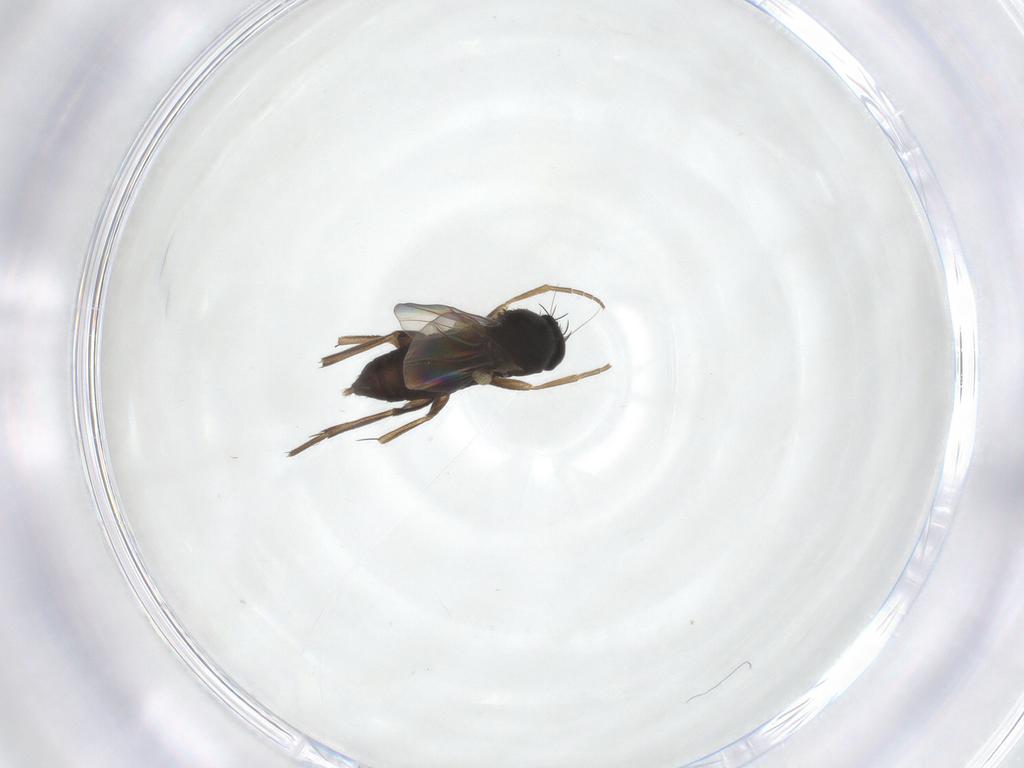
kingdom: Animalia
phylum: Arthropoda
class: Insecta
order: Diptera
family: Phoridae
